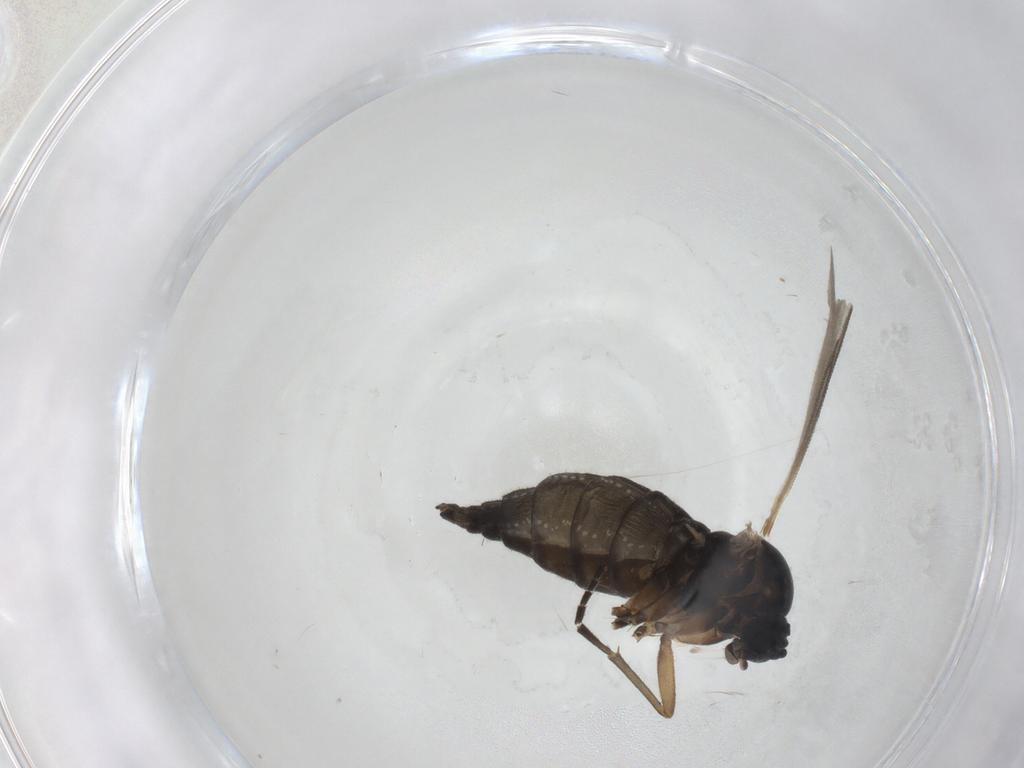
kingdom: Animalia
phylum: Arthropoda
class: Insecta
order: Diptera
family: Sciaridae
